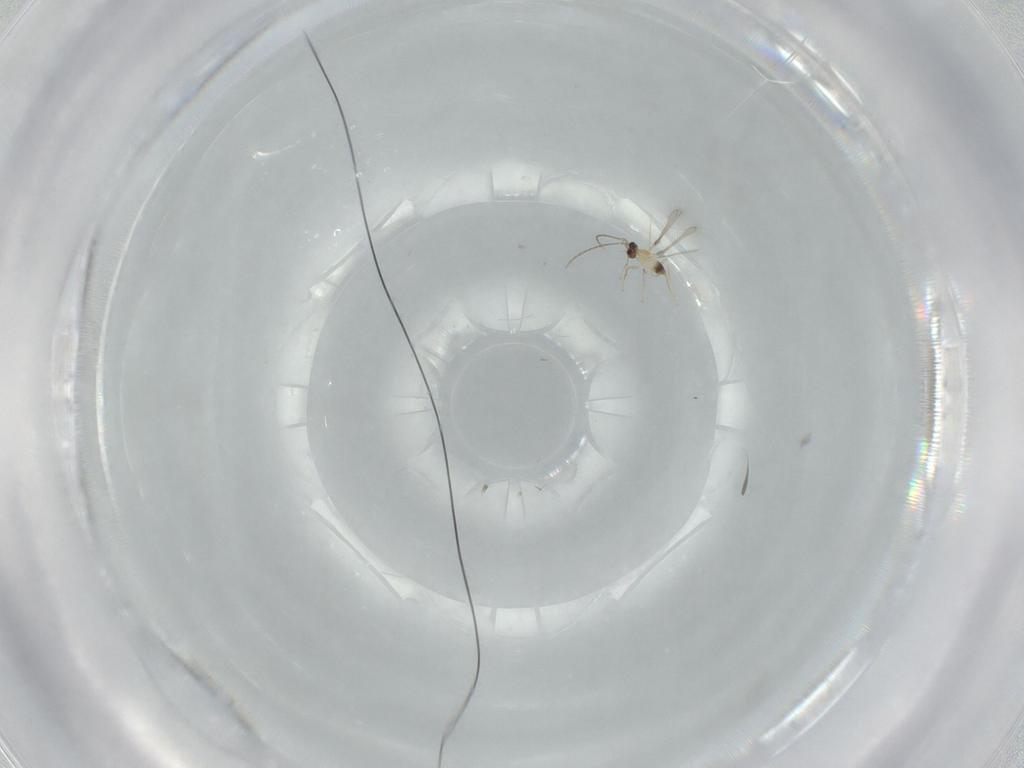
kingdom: Animalia
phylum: Arthropoda
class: Insecta
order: Hymenoptera
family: Mymaridae
